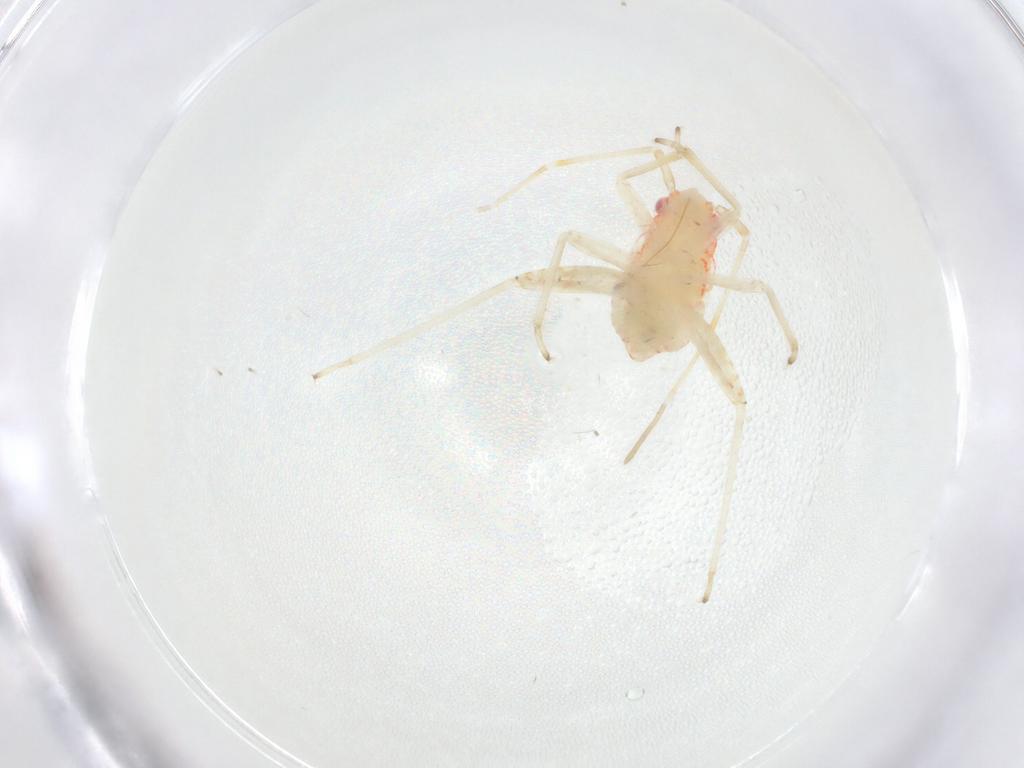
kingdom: Animalia
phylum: Arthropoda
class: Insecta
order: Hemiptera
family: Miridae
